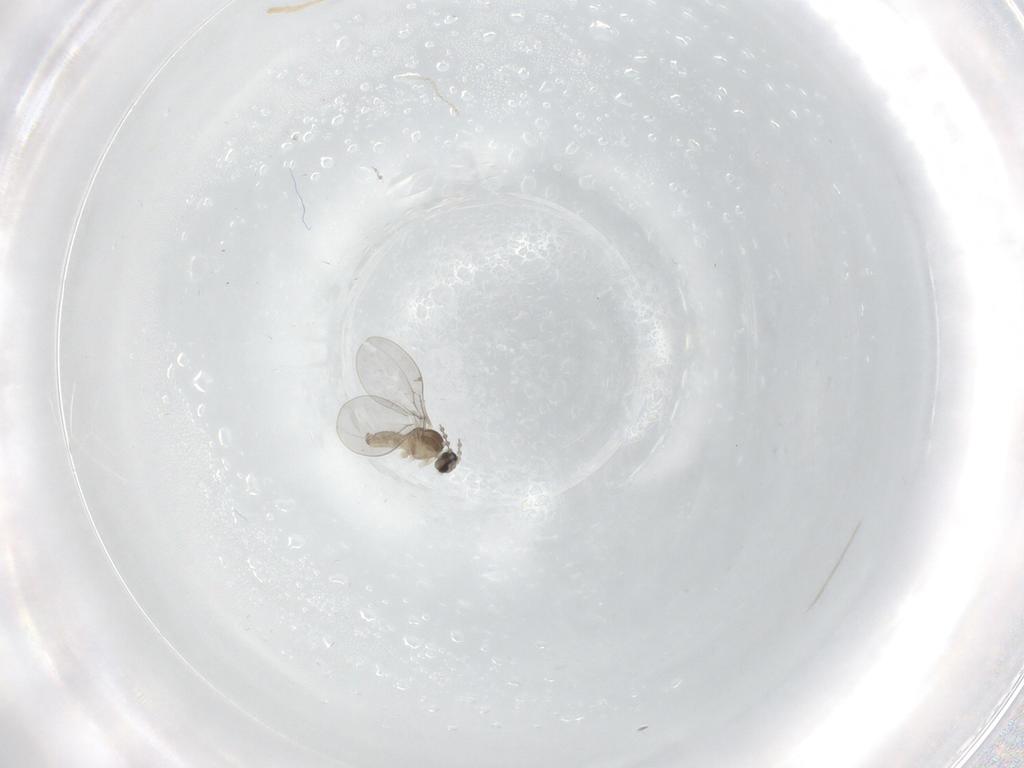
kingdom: Animalia
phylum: Arthropoda
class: Insecta
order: Diptera
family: Cecidomyiidae
